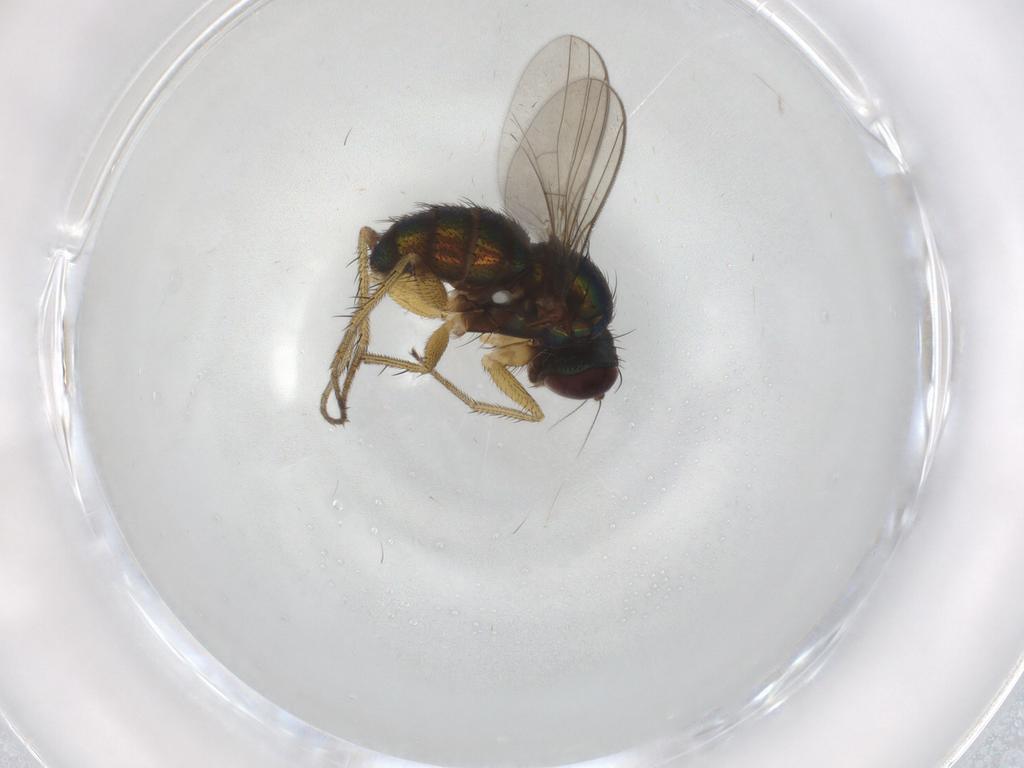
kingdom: Animalia
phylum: Arthropoda
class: Insecta
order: Diptera
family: Dolichopodidae
